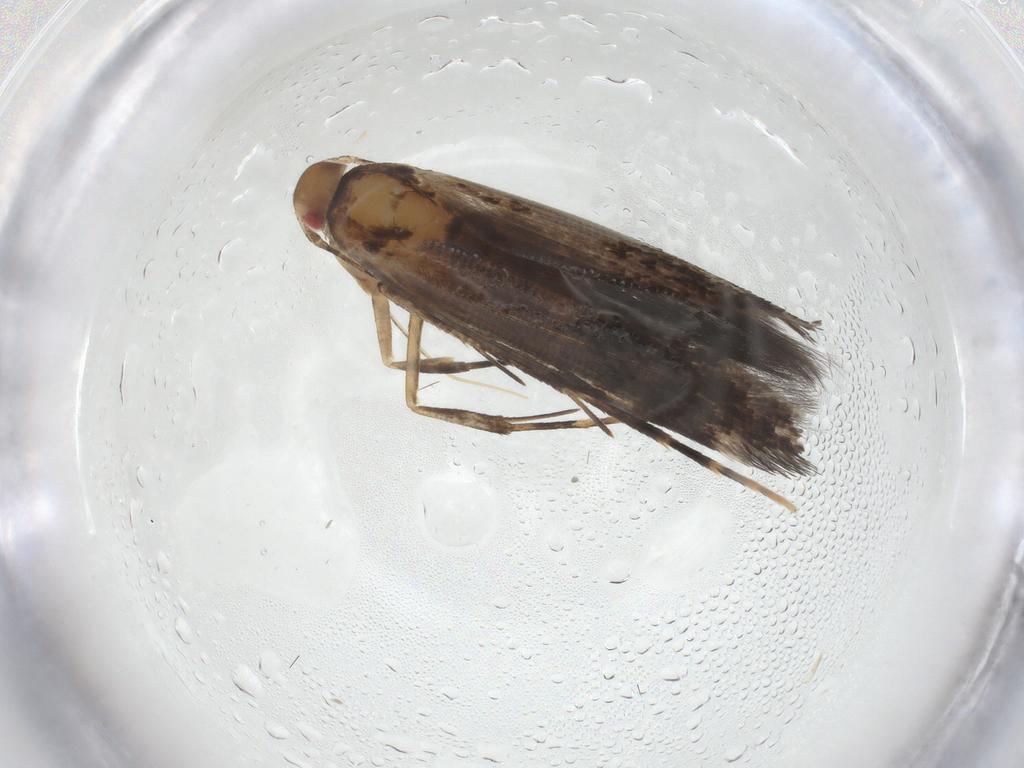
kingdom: Animalia
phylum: Arthropoda
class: Insecta
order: Lepidoptera
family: Cosmopterigidae
